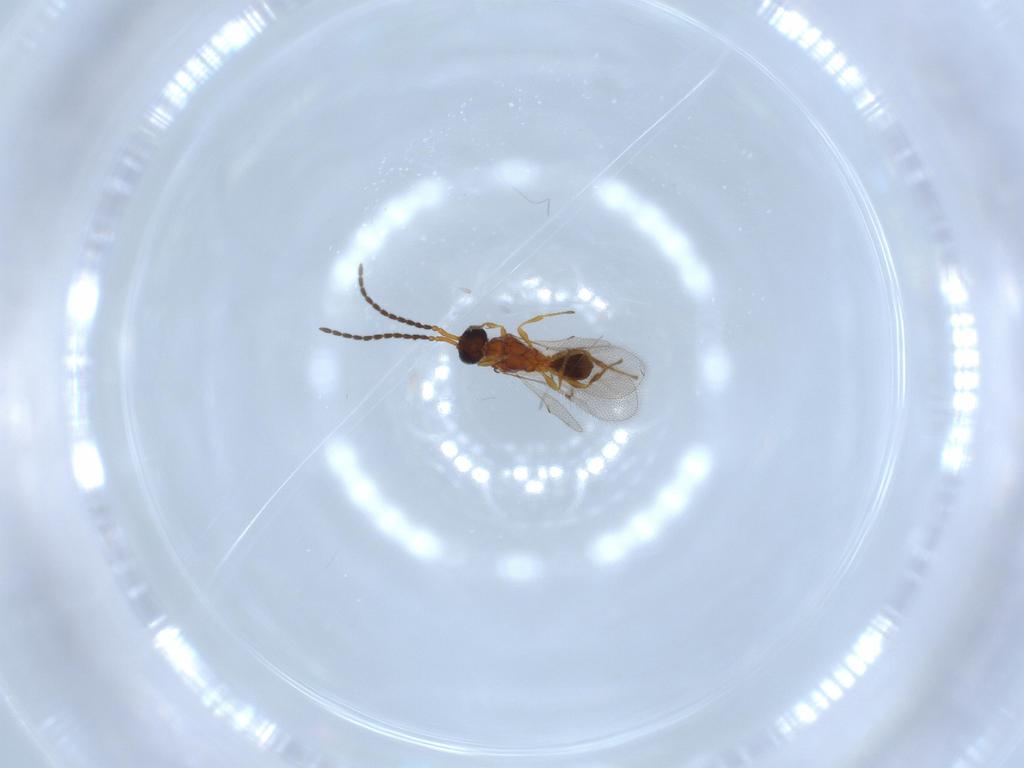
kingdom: Animalia
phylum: Arthropoda
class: Insecta
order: Hymenoptera
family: Diapriidae
